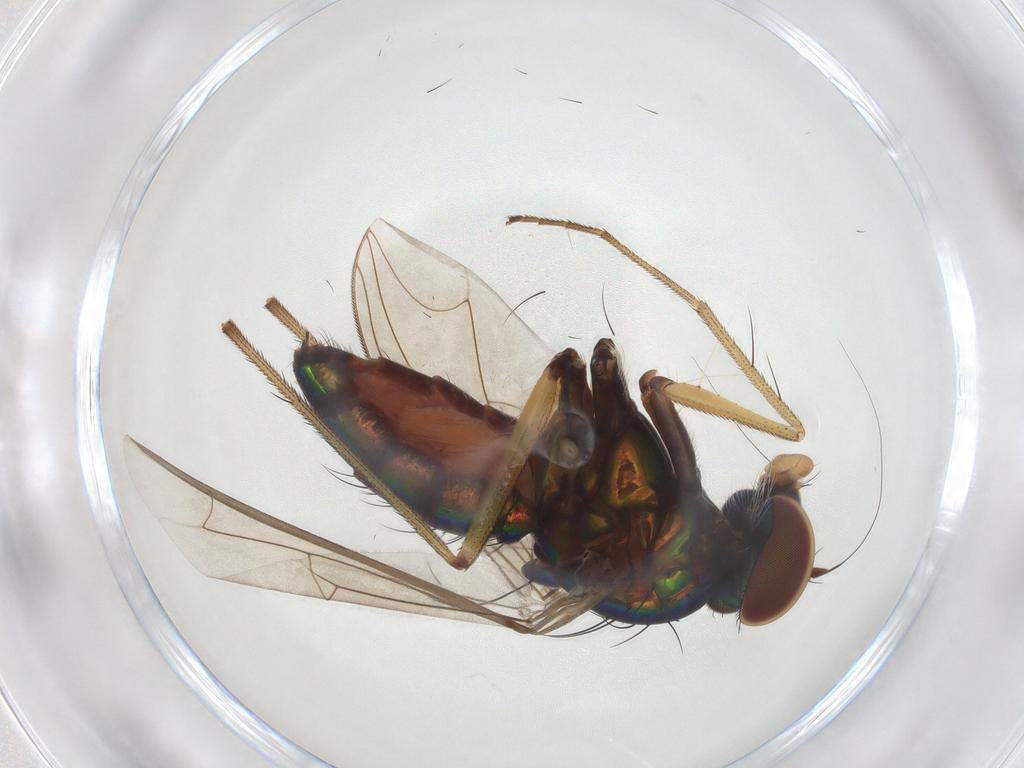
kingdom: Animalia
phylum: Arthropoda
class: Insecta
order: Diptera
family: Dolichopodidae
